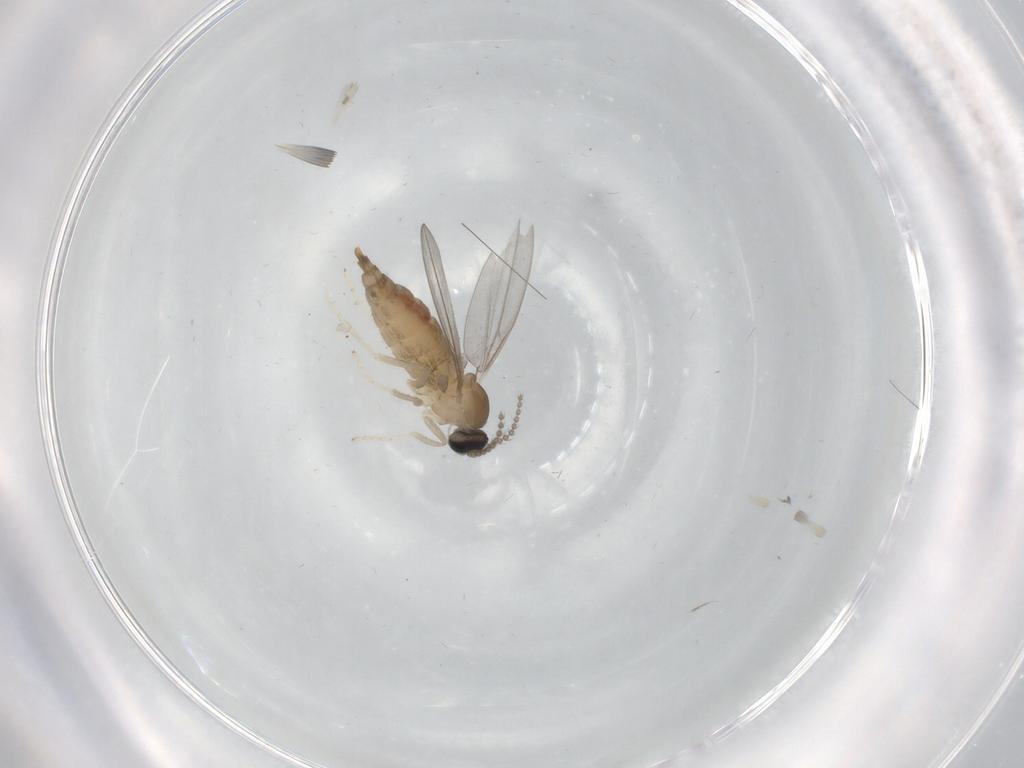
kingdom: Animalia
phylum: Arthropoda
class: Insecta
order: Diptera
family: Cecidomyiidae
